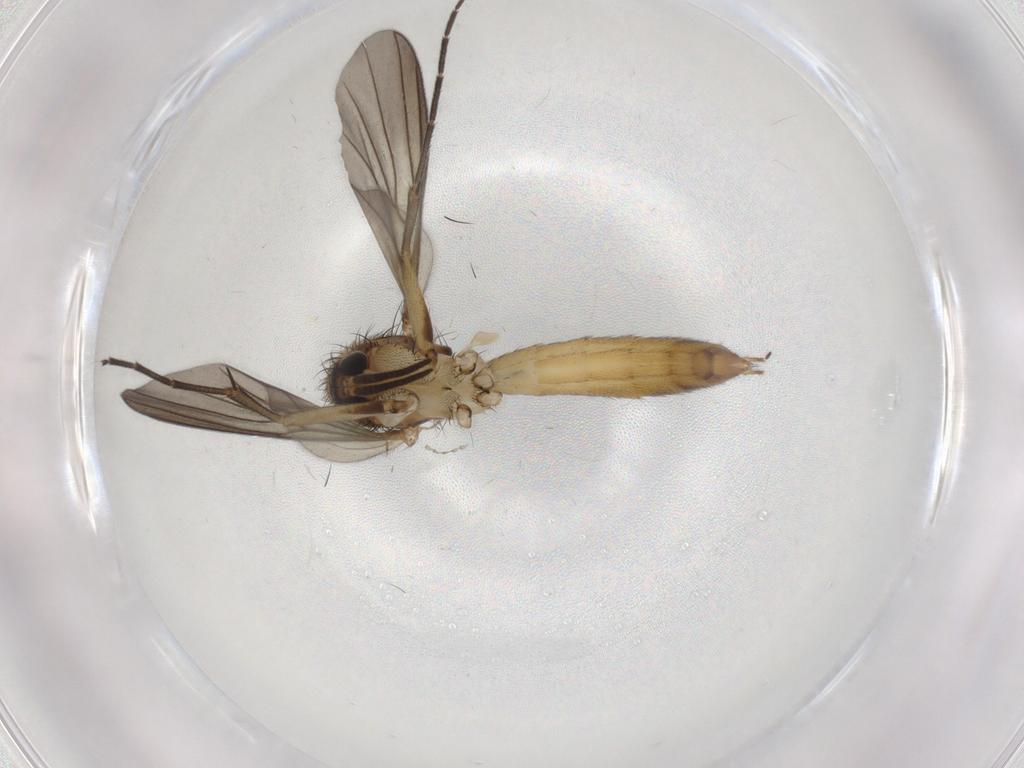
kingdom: Animalia
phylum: Arthropoda
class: Insecta
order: Diptera
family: Mycetophilidae
